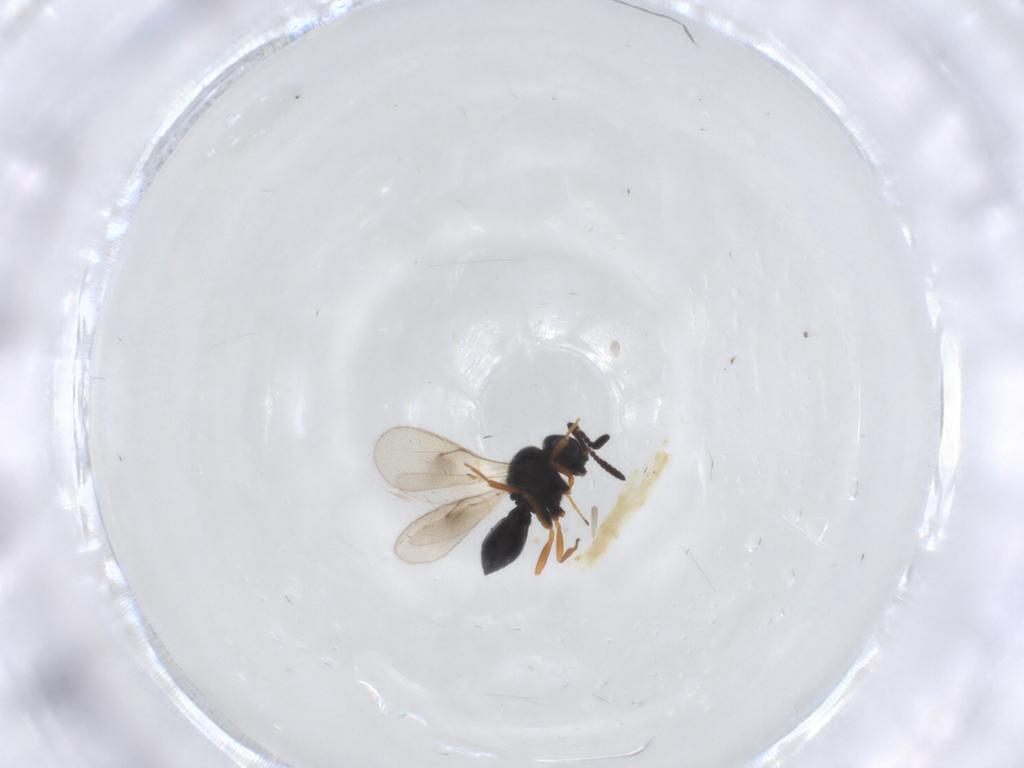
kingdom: Animalia
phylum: Arthropoda
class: Insecta
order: Hymenoptera
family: Scelionidae
